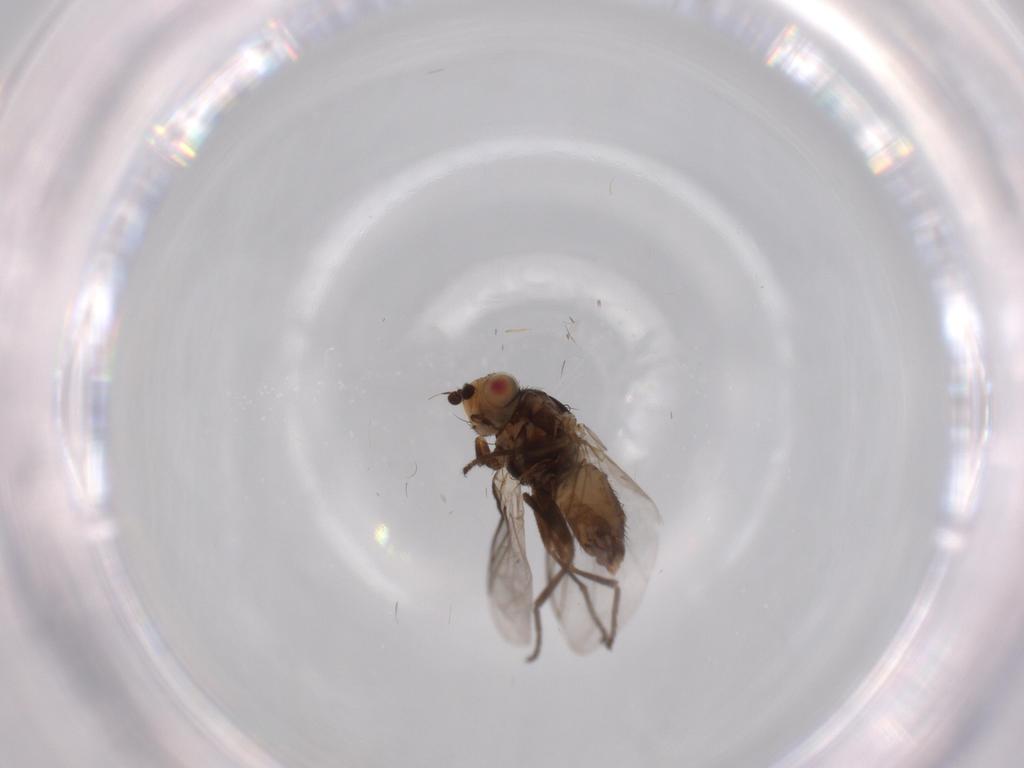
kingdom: Animalia
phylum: Arthropoda
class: Insecta
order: Diptera
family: Agromyzidae
